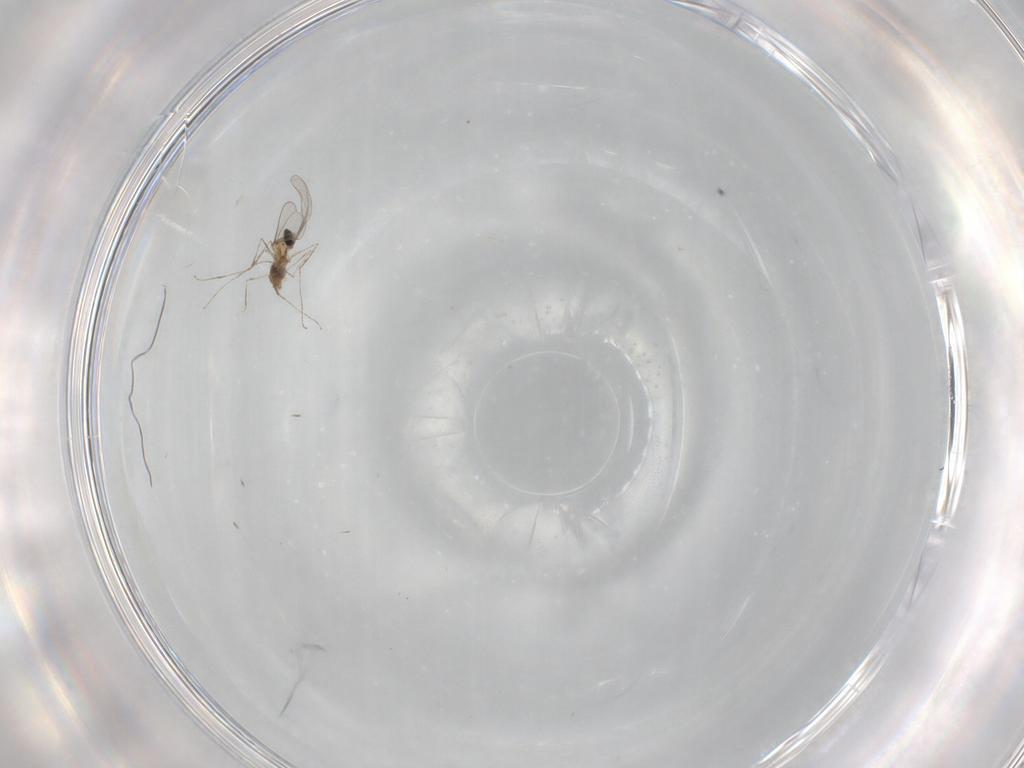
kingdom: Animalia
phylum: Arthropoda
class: Insecta
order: Diptera
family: Cecidomyiidae
